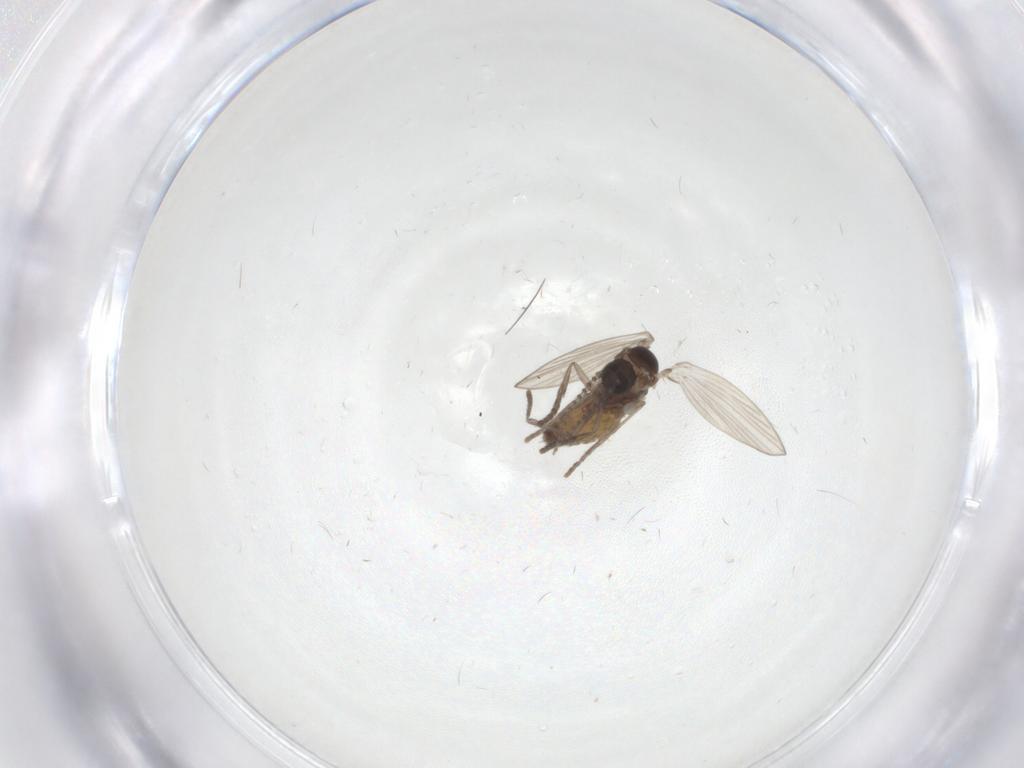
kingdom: Animalia
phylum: Arthropoda
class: Insecta
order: Diptera
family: Psychodidae
